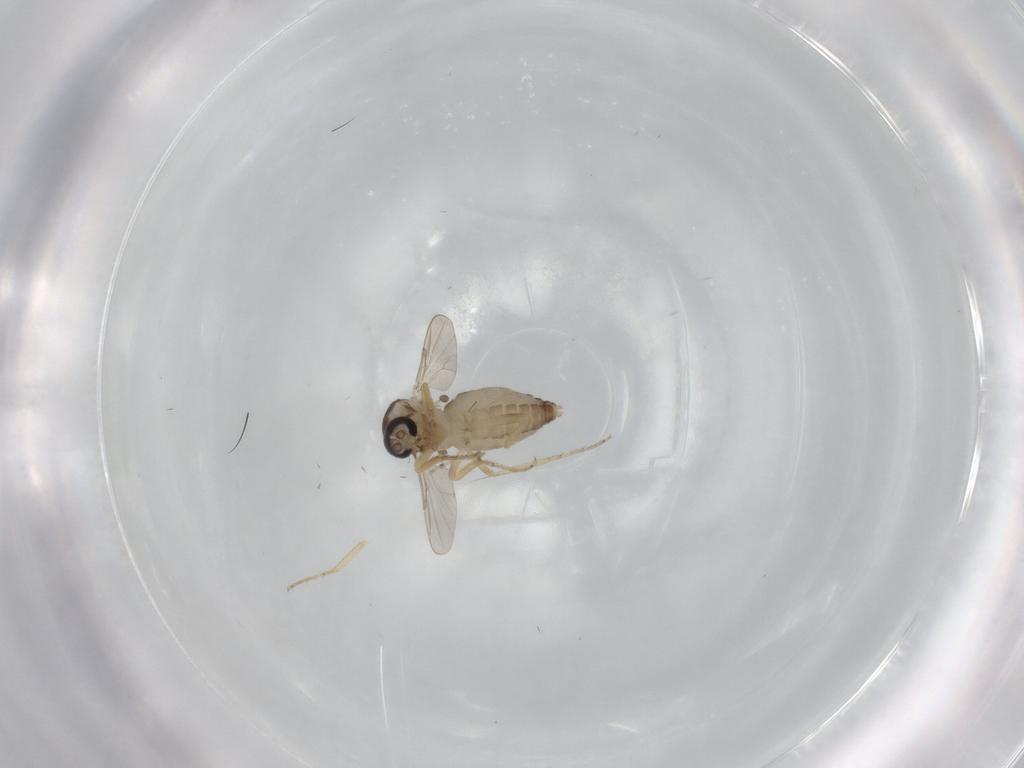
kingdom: Animalia
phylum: Arthropoda
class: Insecta
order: Diptera
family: Ceratopogonidae
